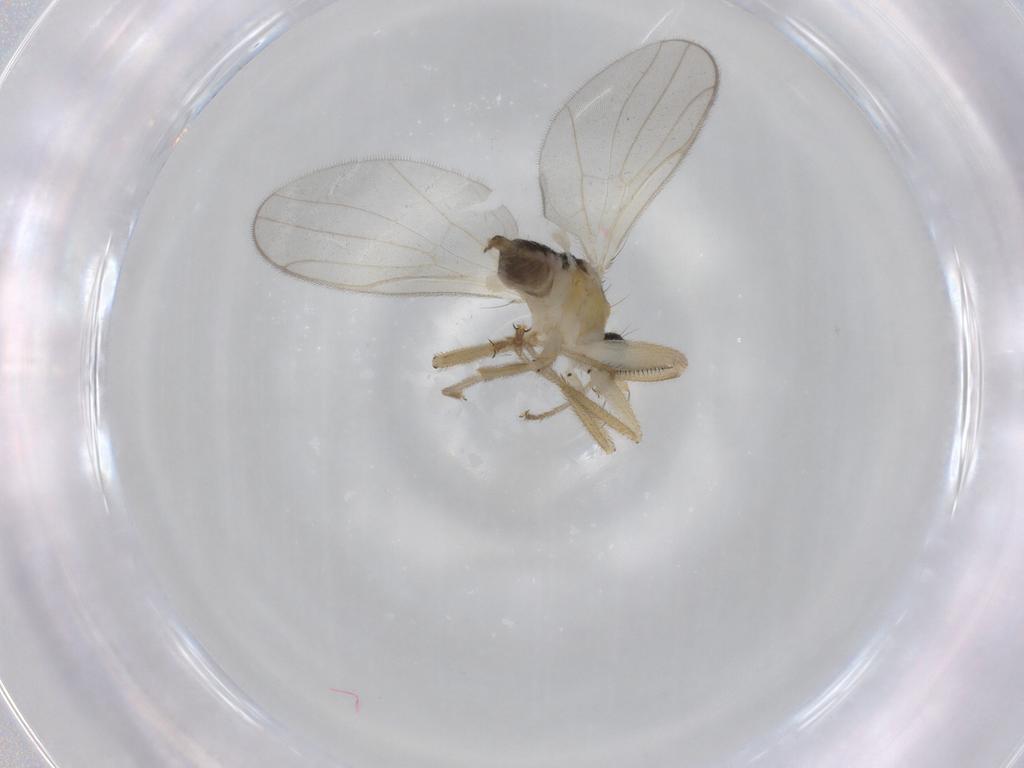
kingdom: Animalia
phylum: Arthropoda
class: Insecta
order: Diptera
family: Hybotidae
